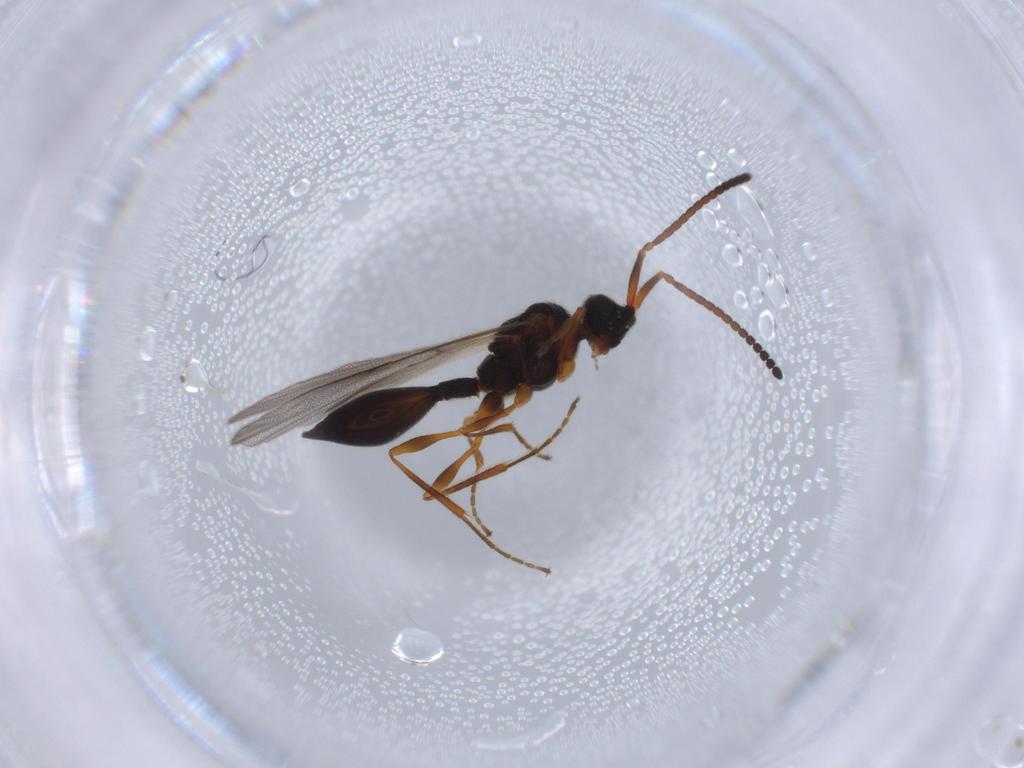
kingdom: Animalia
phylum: Arthropoda
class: Insecta
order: Hymenoptera
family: Diapriidae
